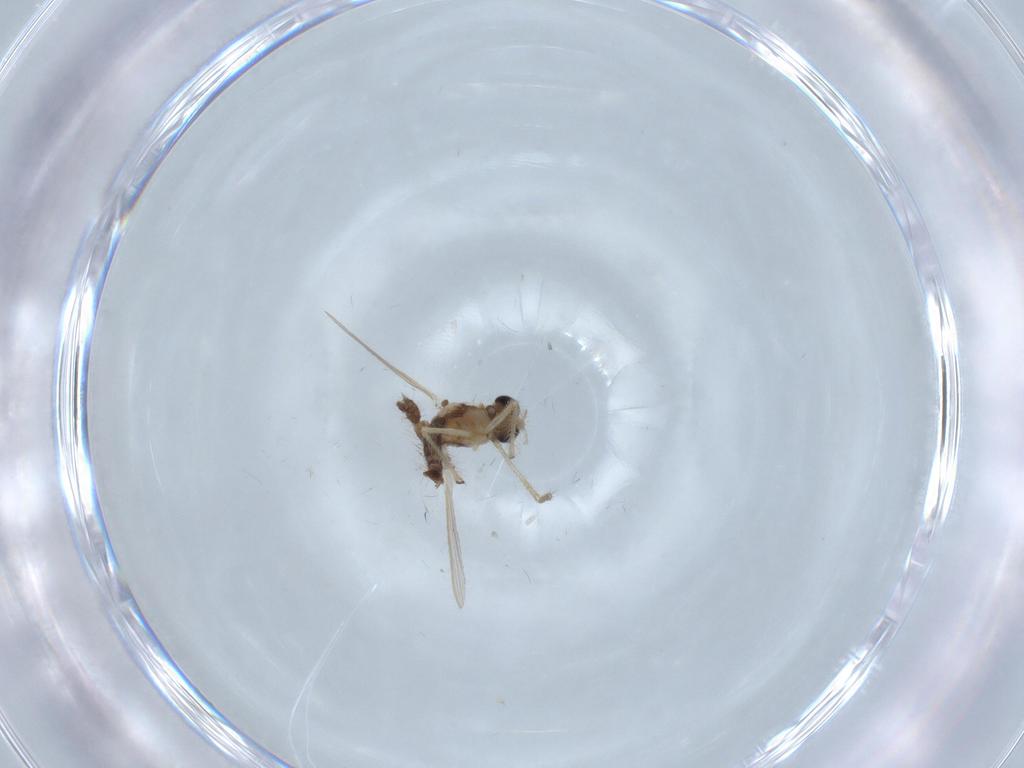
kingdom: Animalia
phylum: Arthropoda
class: Insecta
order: Diptera
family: Chironomidae
